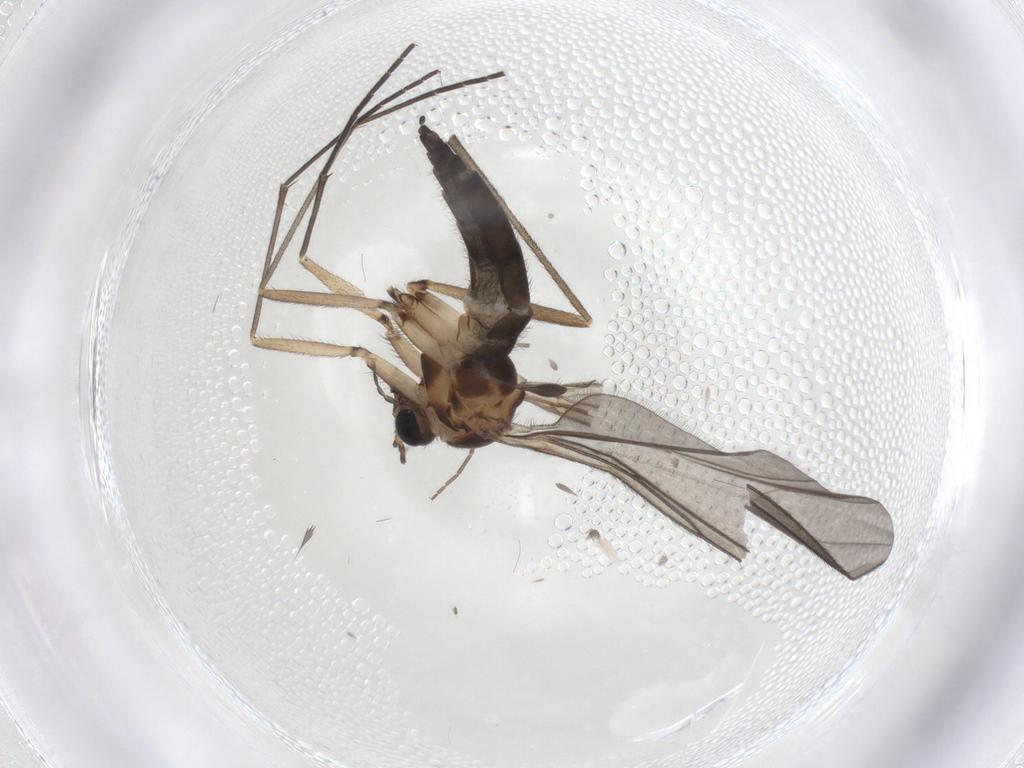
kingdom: Animalia
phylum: Arthropoda
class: Insecta
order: Diptera
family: Sciaridae
